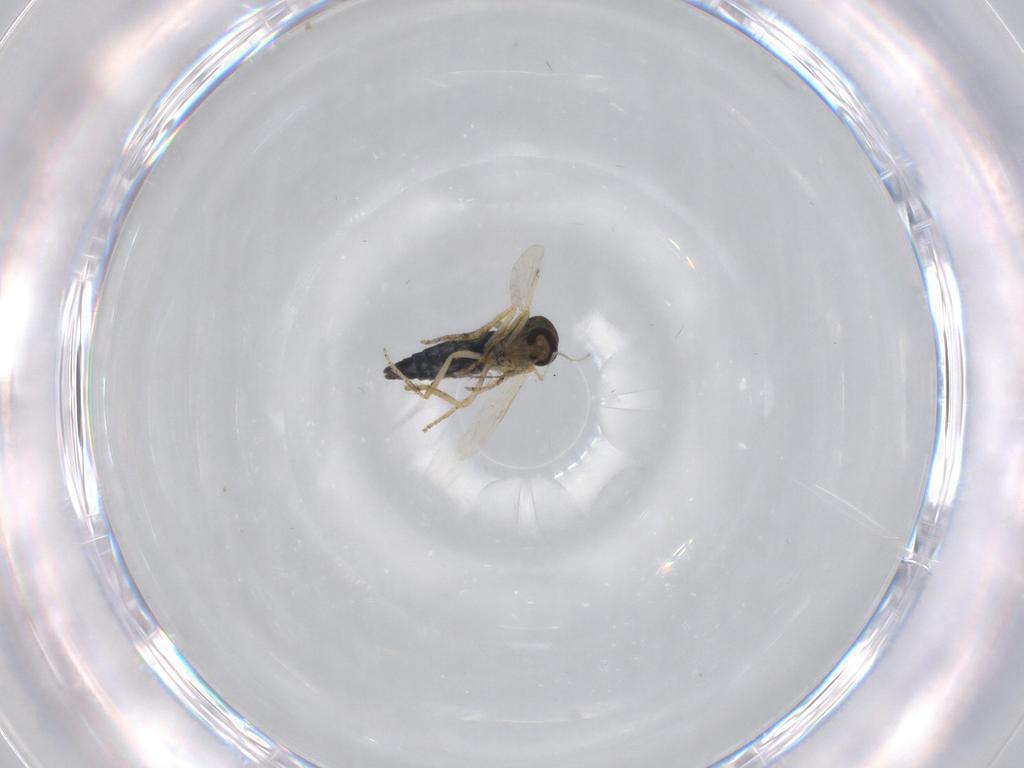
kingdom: Animalia
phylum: Arthropoda
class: Insecta
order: Diptera
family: Ceratopogonidae
